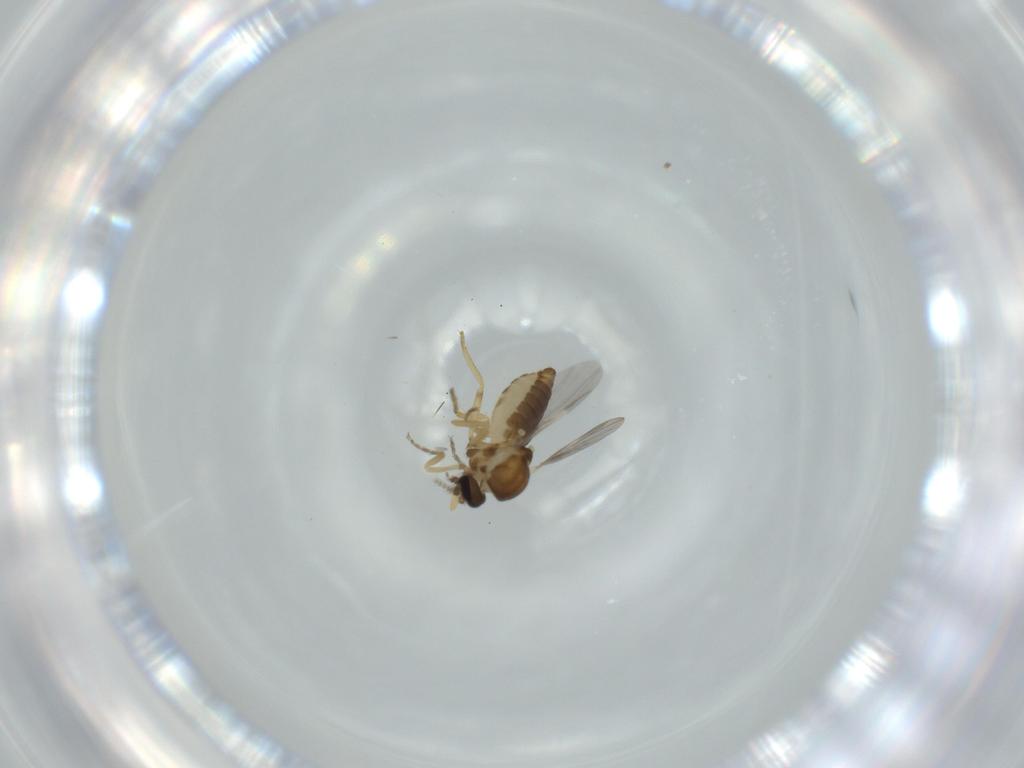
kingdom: Animalia
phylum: Arthropoda
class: Insecta
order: Diptera
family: Ceratopogonidae
